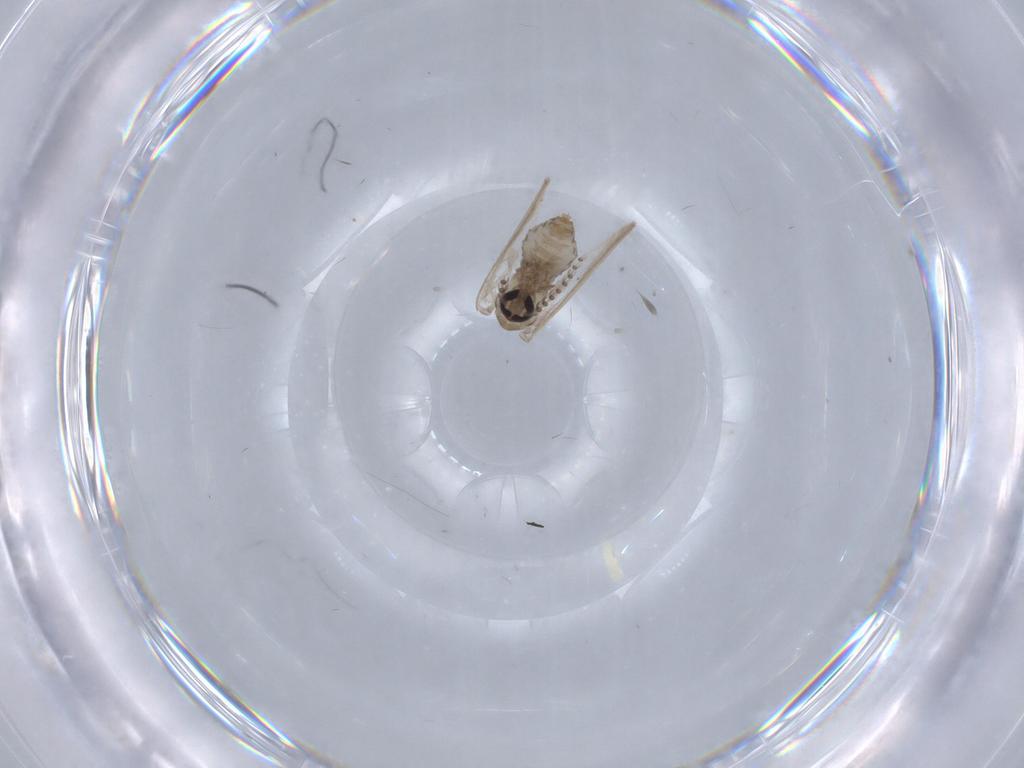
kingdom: Animalia
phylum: Arthropoda
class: Insecta
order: Diptera
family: Psychodidae
